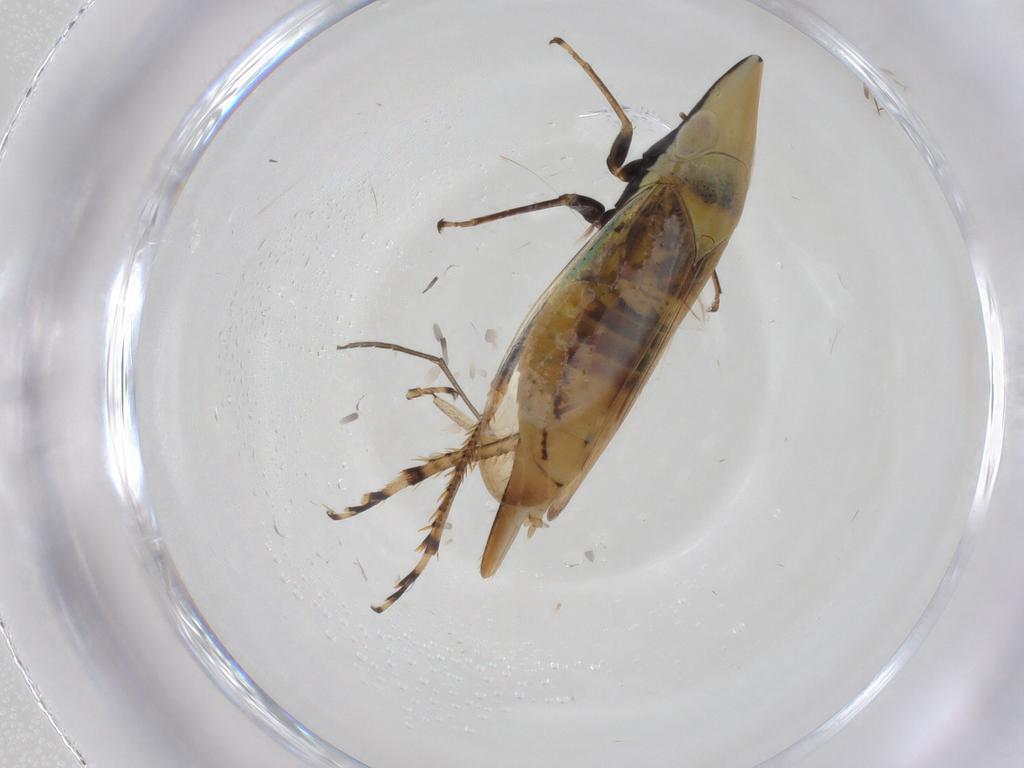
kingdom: Animalia
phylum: Arthropoda
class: Insecta
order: Hemiptera
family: Cicadellidae
